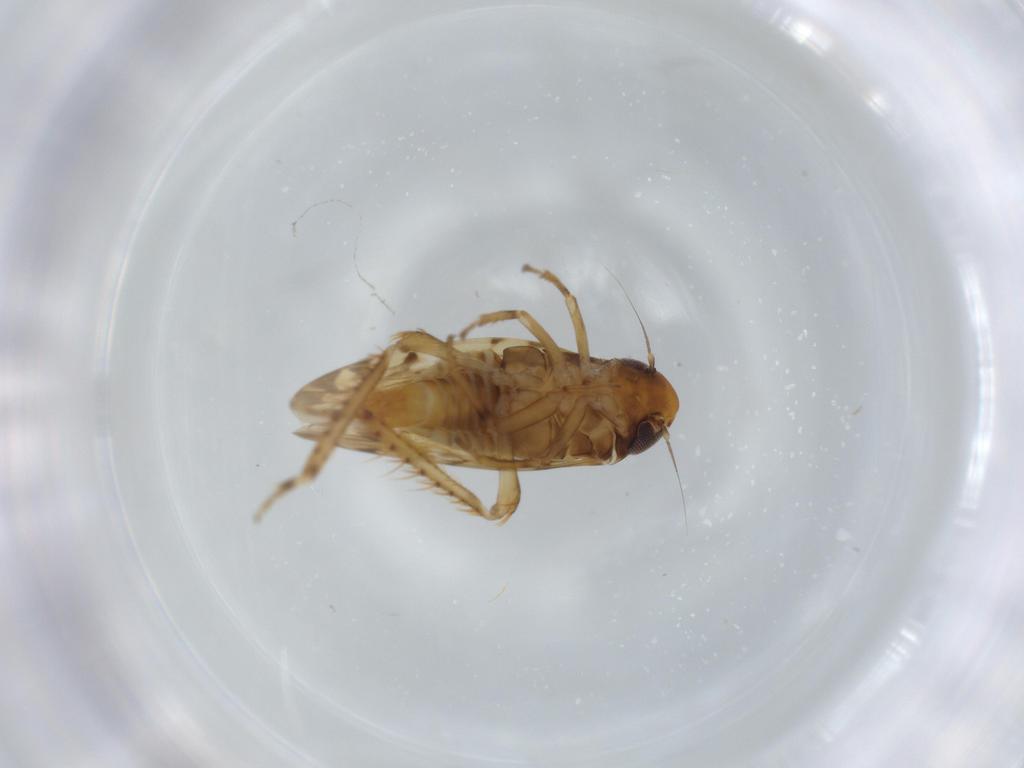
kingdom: Animalia
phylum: Arthropoda
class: Insecta
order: Hemiptera
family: Cicadellidae
